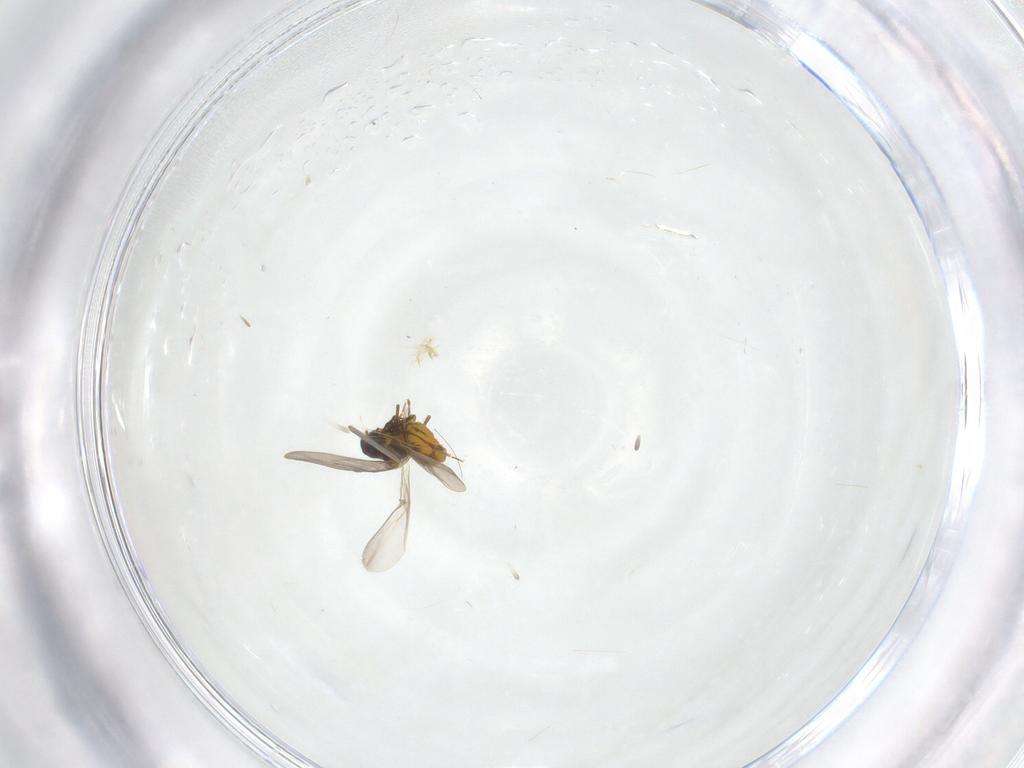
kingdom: Animalia
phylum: Arthropoda
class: Insecta
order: Hemiptera
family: Aleyrodidae
